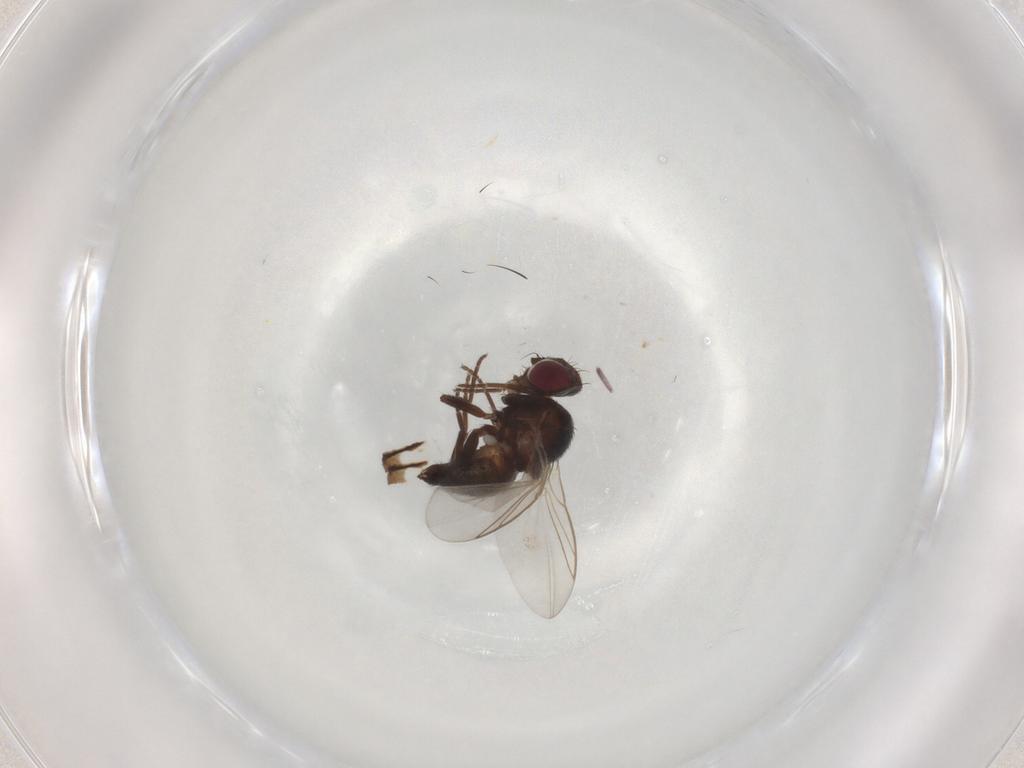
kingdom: Animalia
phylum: Arthropoda
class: Insecta
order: Diptera
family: Agromyzidae
